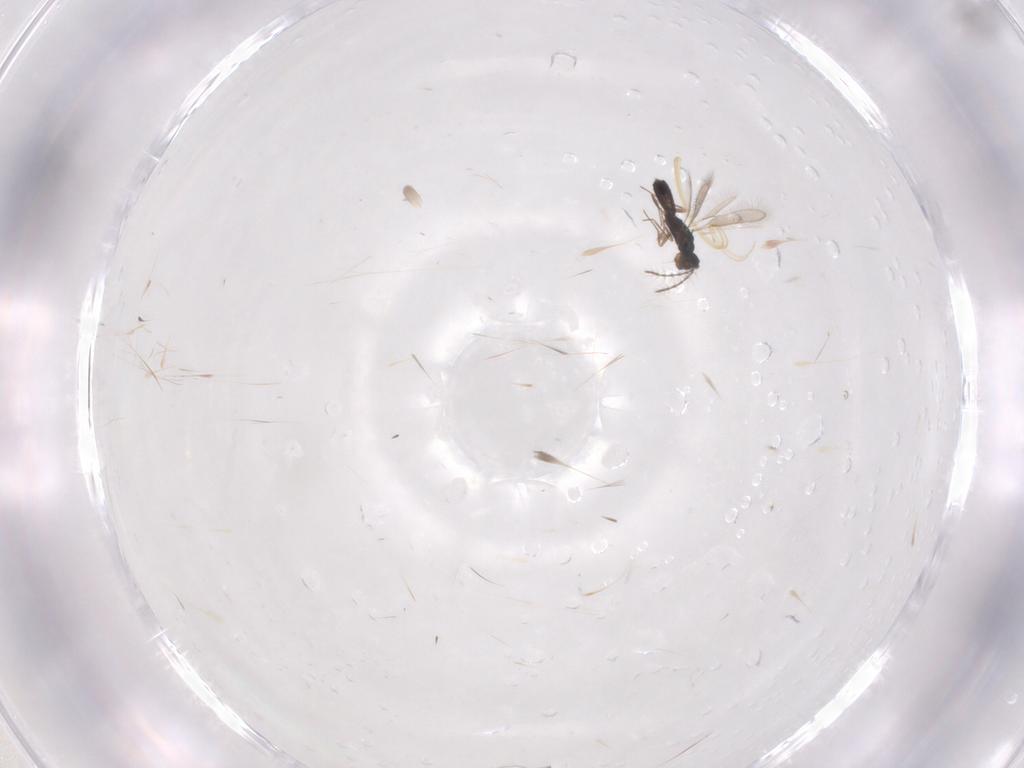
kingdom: Animalia
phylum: Arthropoda
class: Insecta
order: Hymenoptera
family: Pteromalidae
